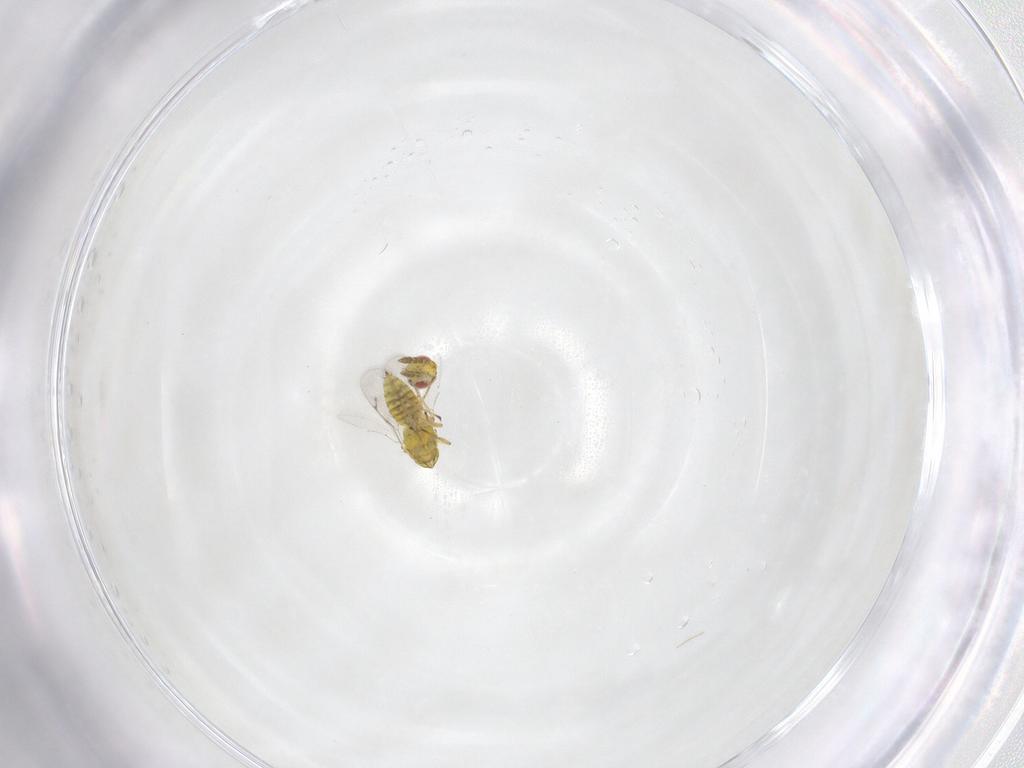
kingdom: Animalia
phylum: Arthropoda
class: Insecta
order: Hymenoptera
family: Eulophidae
